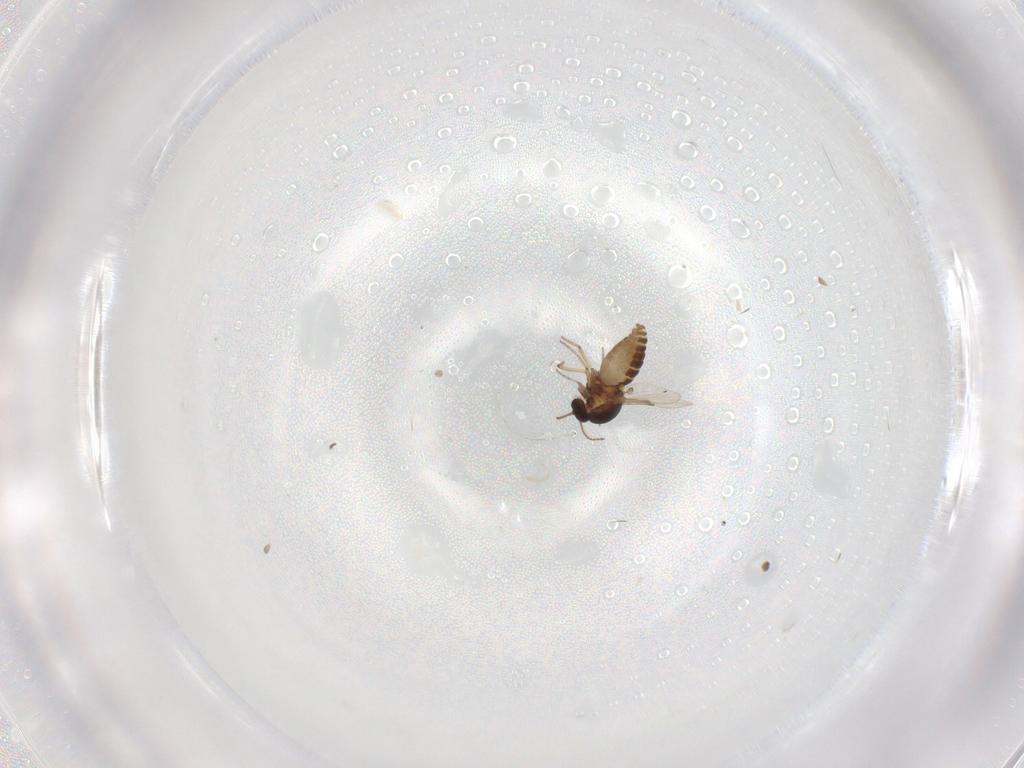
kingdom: Animalia
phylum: Arthropoda
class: Insecta
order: Diptera
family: Ceratopogonidae
